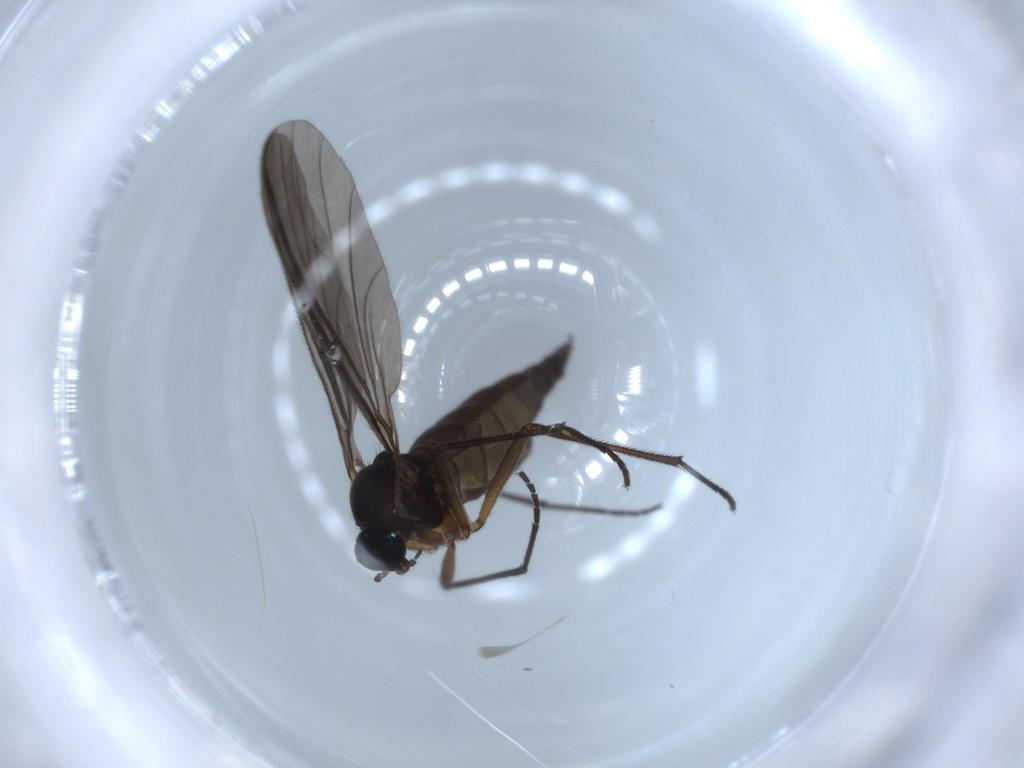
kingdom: Animalia
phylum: Arthropoda
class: Insecta
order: Diptera
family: Sciaridae
